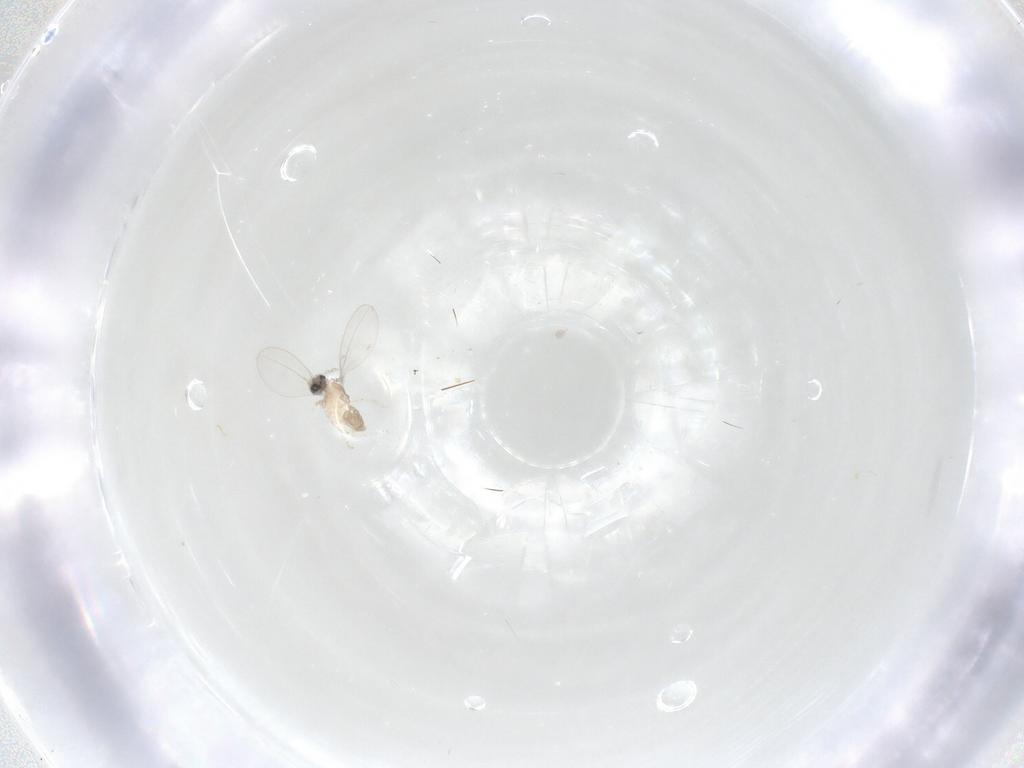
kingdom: Animalia
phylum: Arthropoda
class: Insecta
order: Diptera
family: Cecidomyiidae
